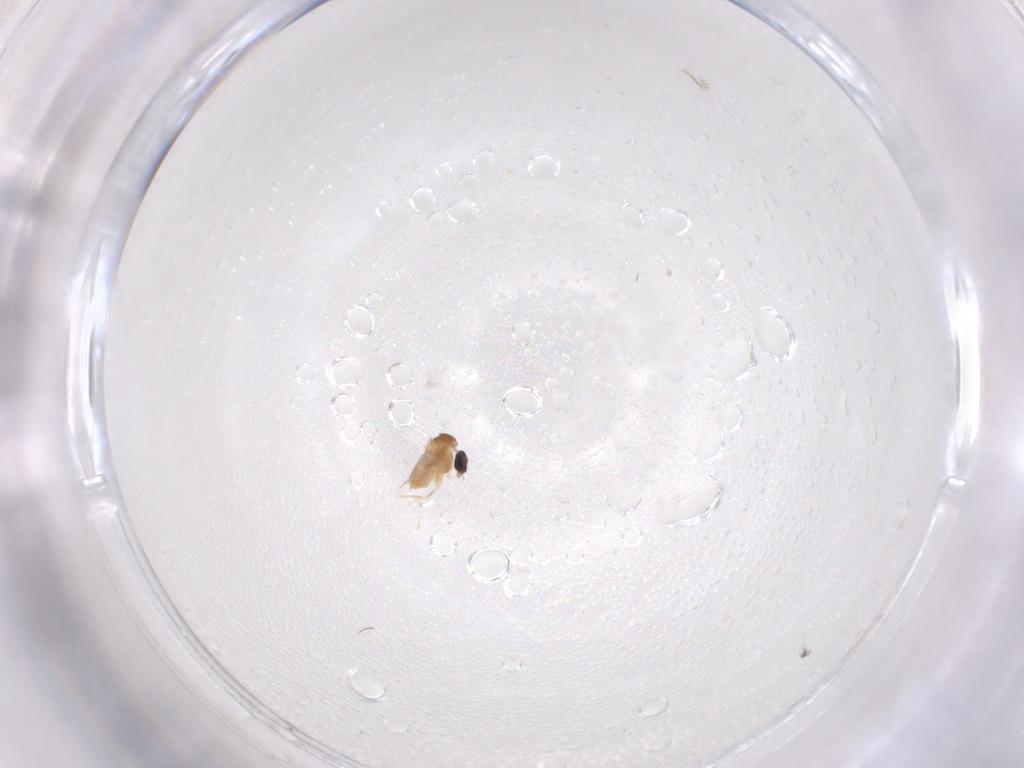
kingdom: Animalia
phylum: Arthropoda
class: Insecta
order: Diptera
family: Cecidomyiidae
